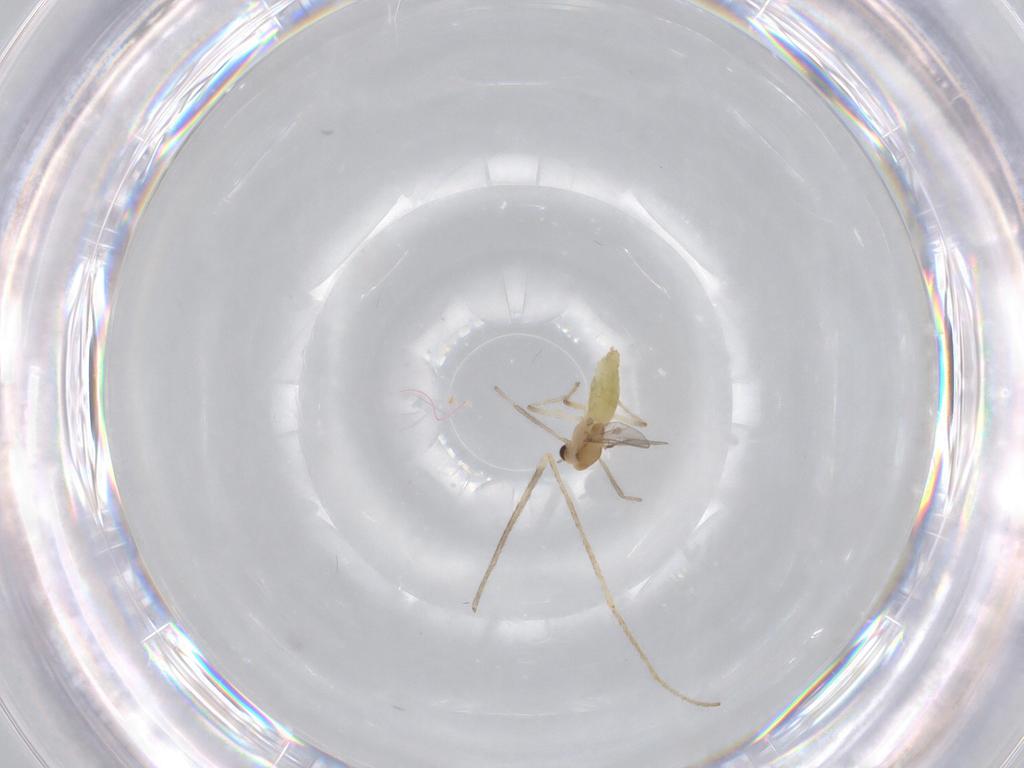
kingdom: Animalia
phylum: Arthropoda
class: Insecta
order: Diptera
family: Chironomidae
